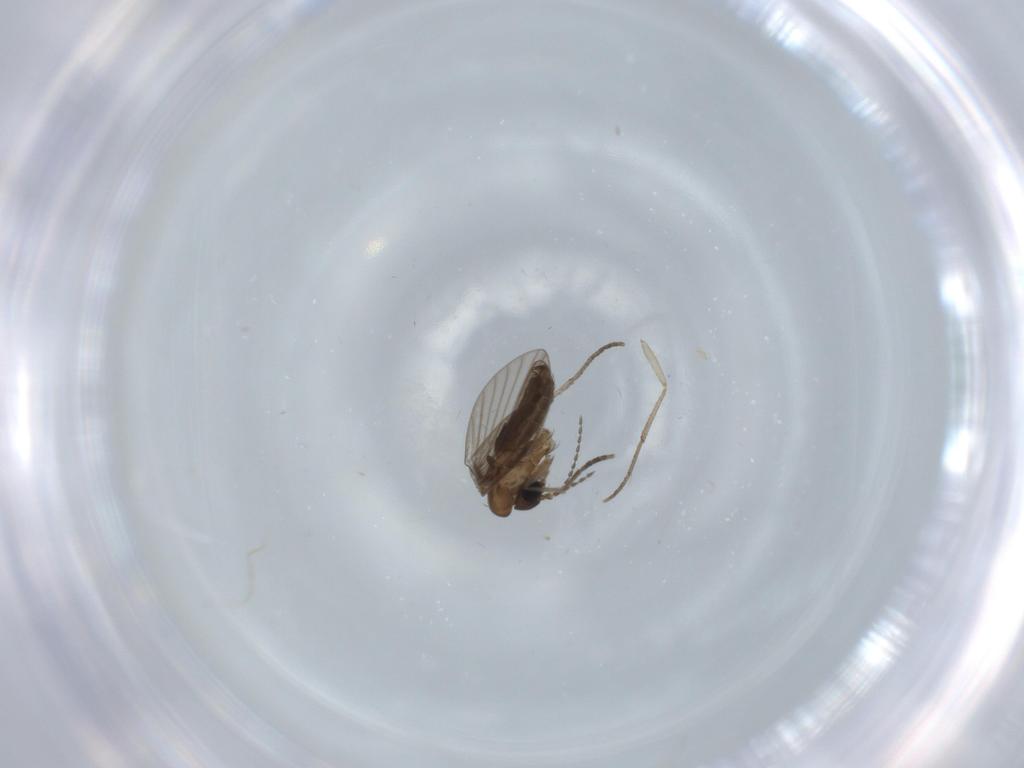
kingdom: Animalia
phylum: Arthropoda
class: Insecta
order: Diptera
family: Psychodidae
